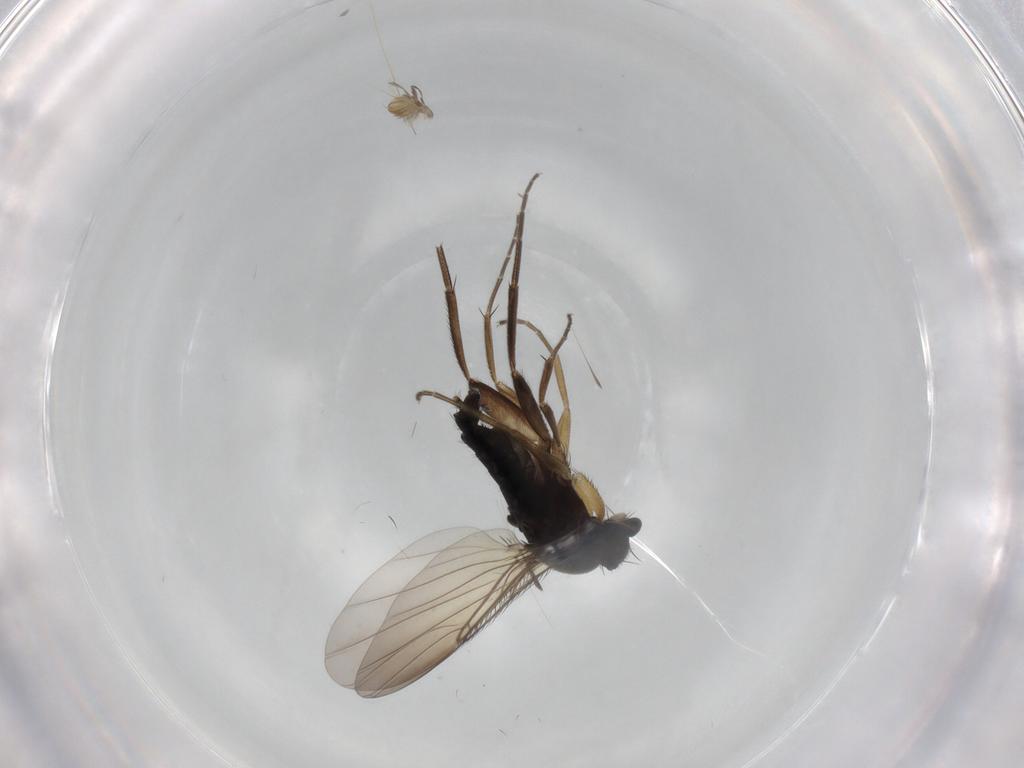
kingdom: Animalia
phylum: Arthropoda
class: Insecta
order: Diptera
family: Phoridae
